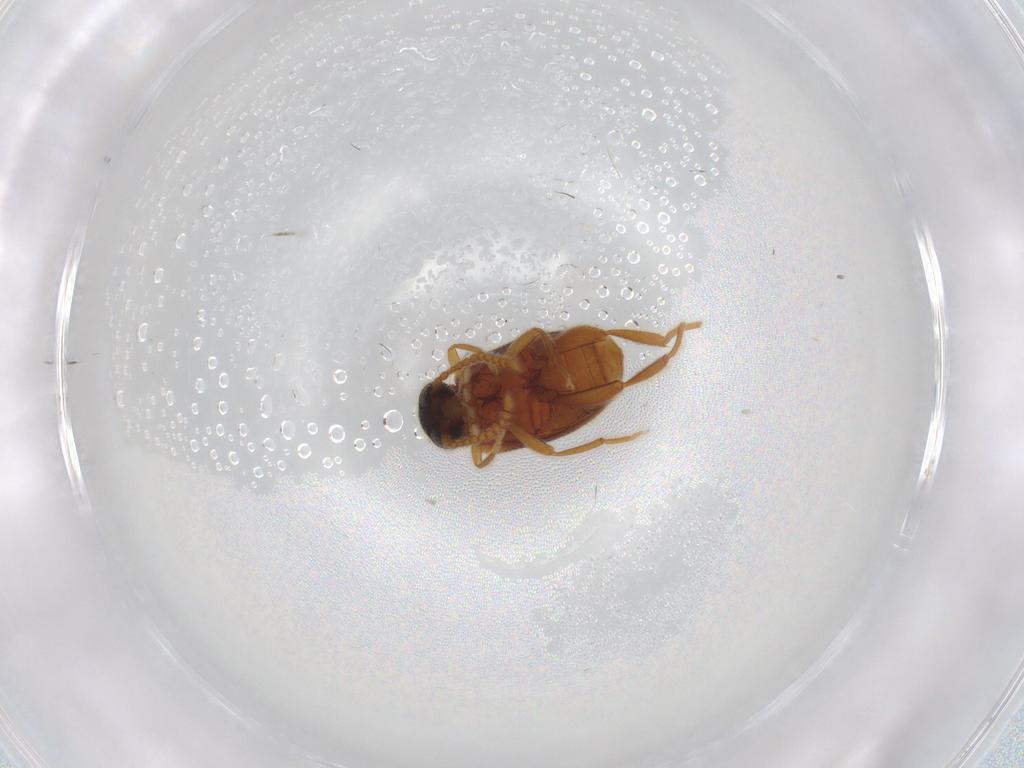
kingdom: Animalia
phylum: Arthropoda
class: Insecta
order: Coleoptera
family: Aderidae
